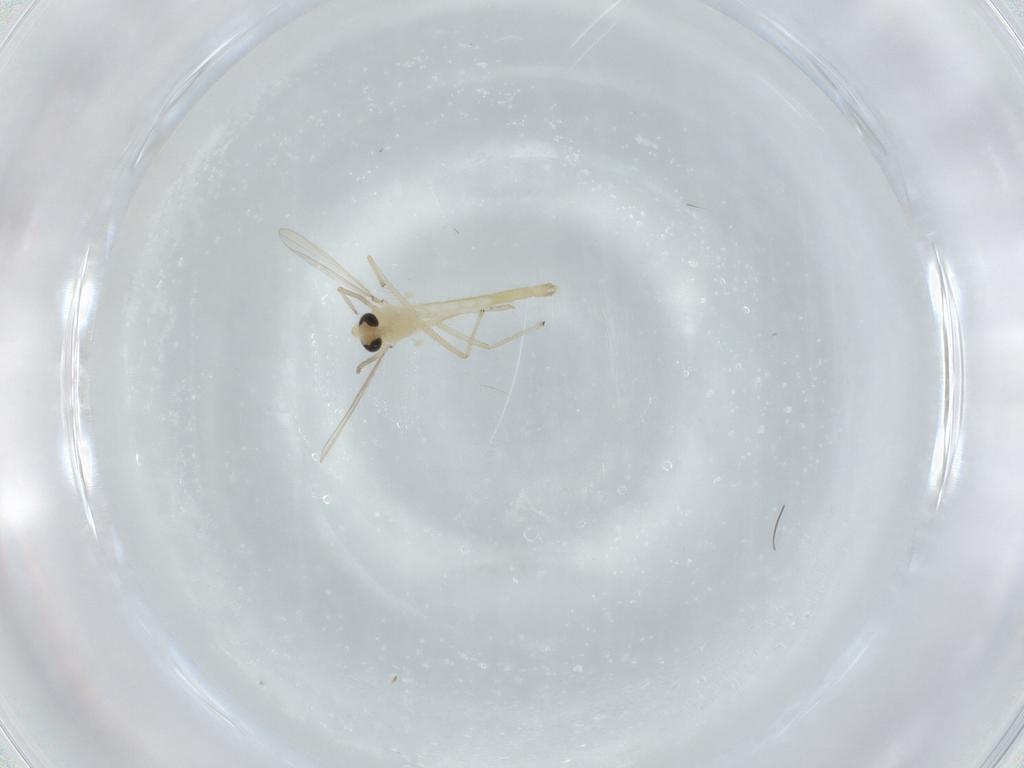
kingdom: Animalia
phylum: Arthropoda
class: Insecta
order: Diptera
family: Chironomidae
